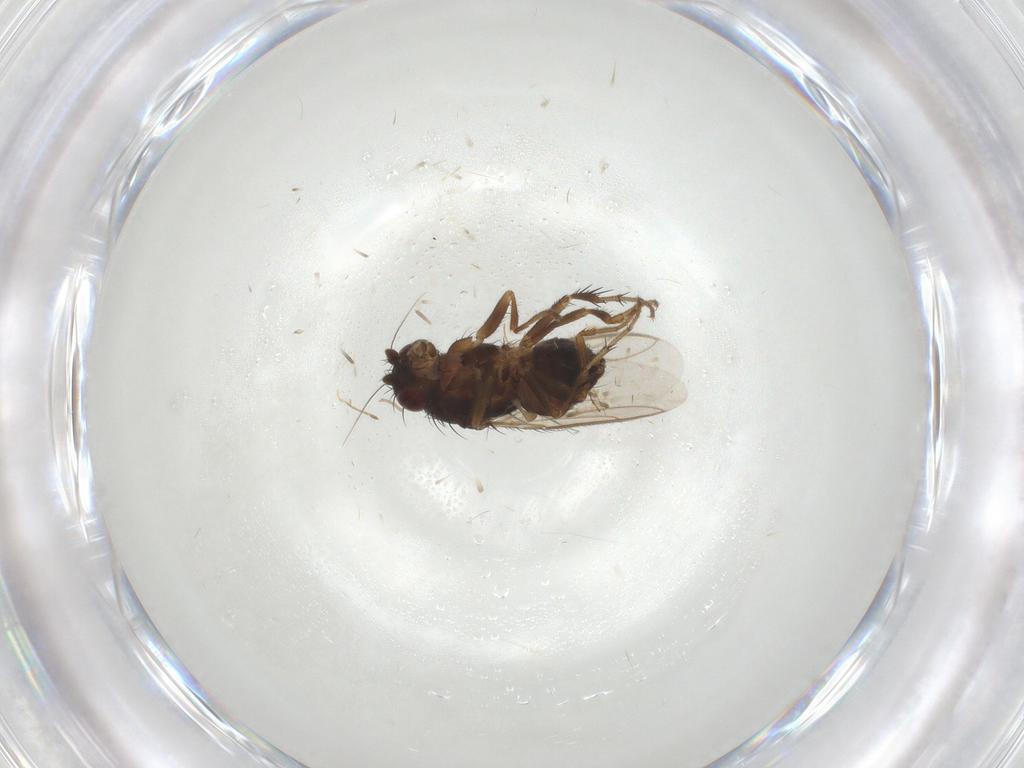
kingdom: Animalia
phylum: Arthropoda
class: Insecta
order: Diptera
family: Sphaeroceridae
